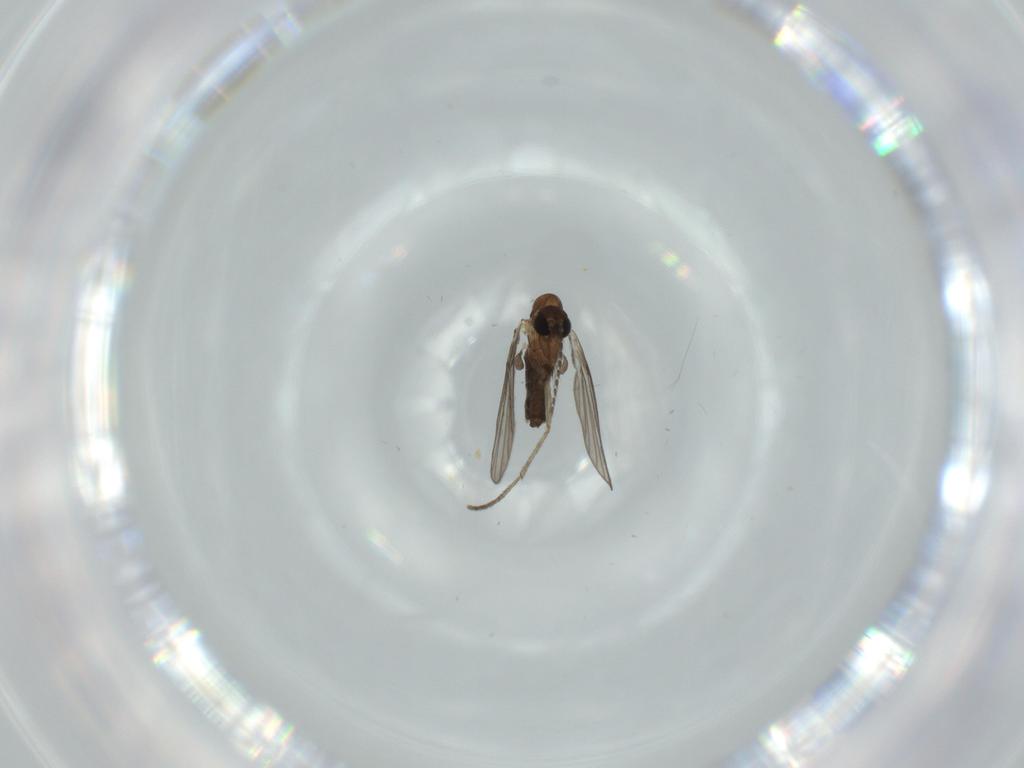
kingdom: Animalia
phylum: Arthropoda
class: Insecta
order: Diptera
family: Psychodidae
